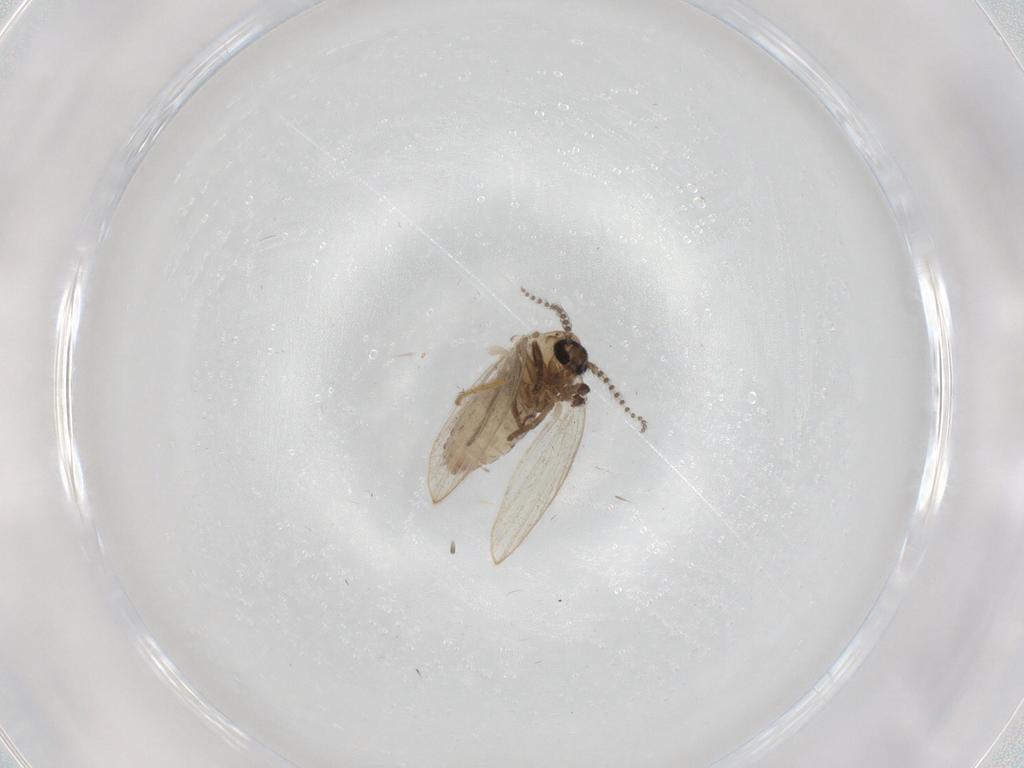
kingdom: Animalia
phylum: Arthropoda
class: Insecta
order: Diptera
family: Psychodidae
